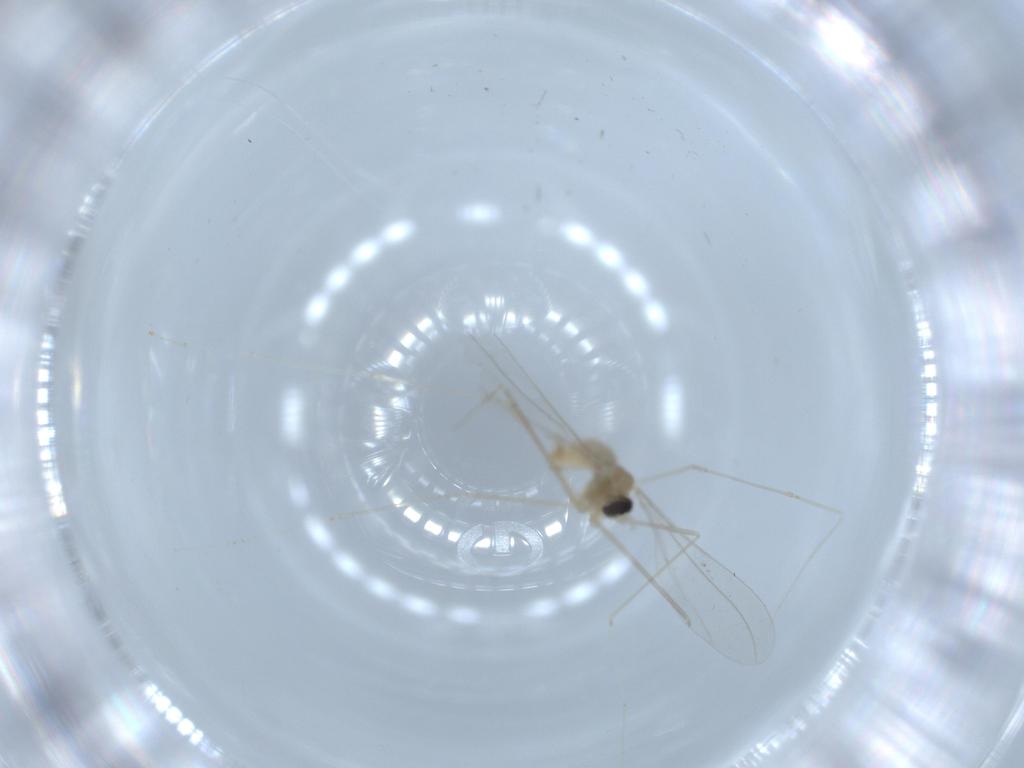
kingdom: Animalia
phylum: Arthropoda
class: Insecta
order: Diptera
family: Cecidomyiidae
